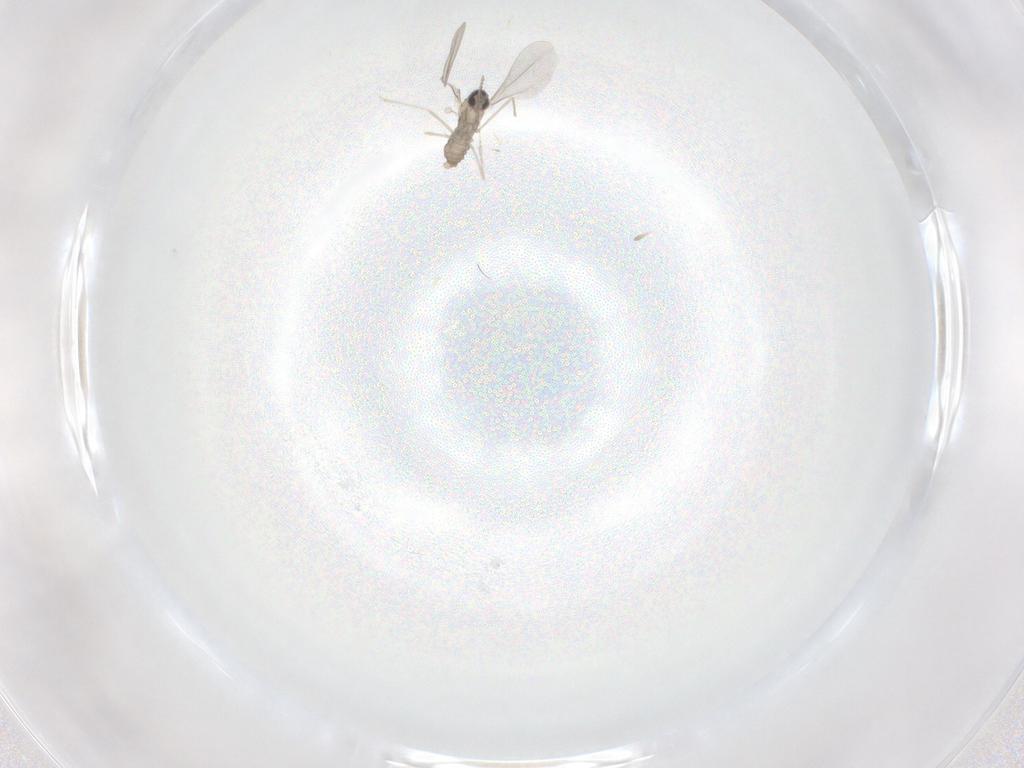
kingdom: Animalia
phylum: Arthropoda
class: Insecta
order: Diptera
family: Cecidomyiidae
